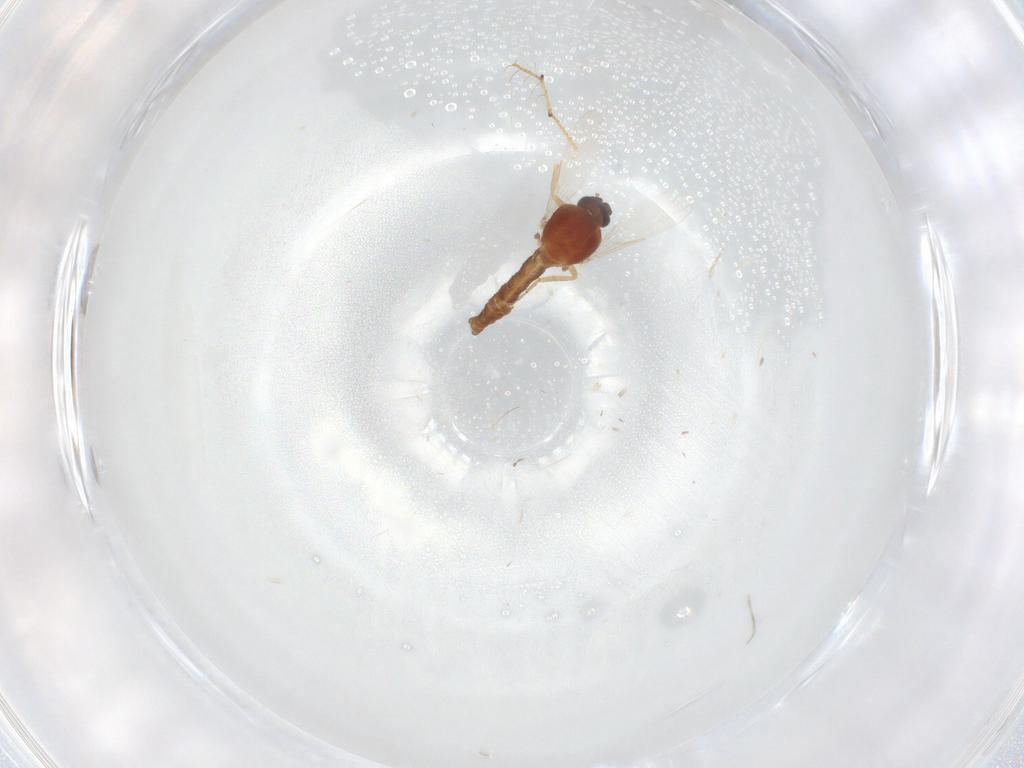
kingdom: Animalia
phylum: Arthropoda
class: Insecta
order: Diptera
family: Ceratopogonidae
